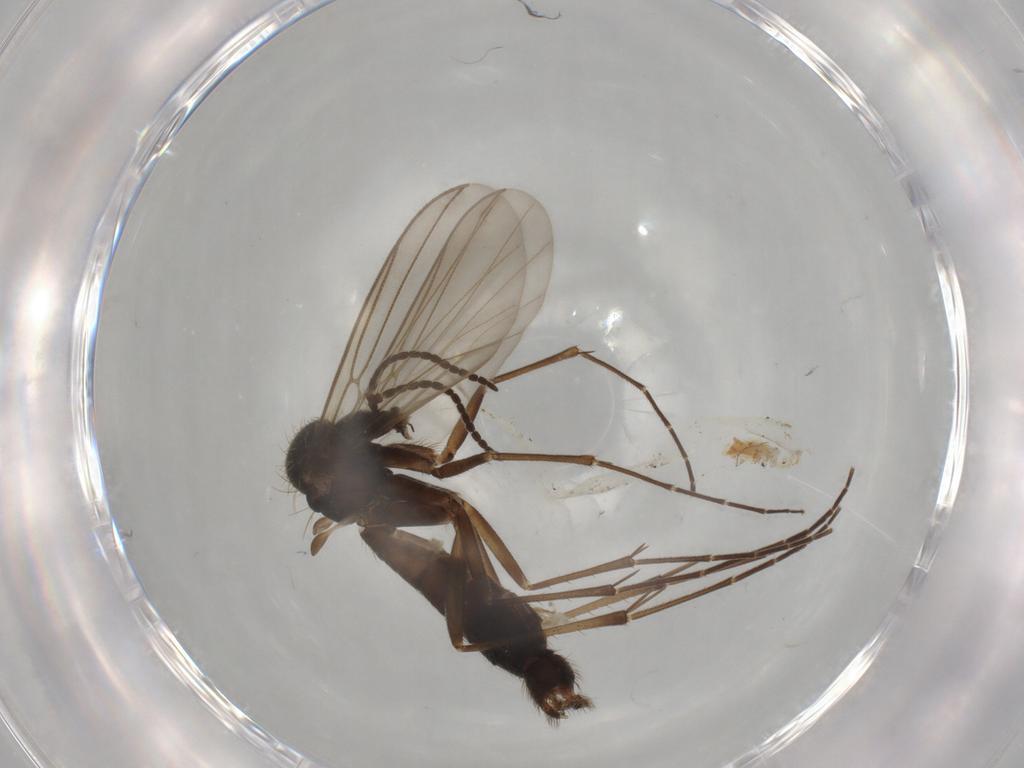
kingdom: Animalia
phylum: Arthropoda
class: Insecta
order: Diptera
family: Mycetophilidae
